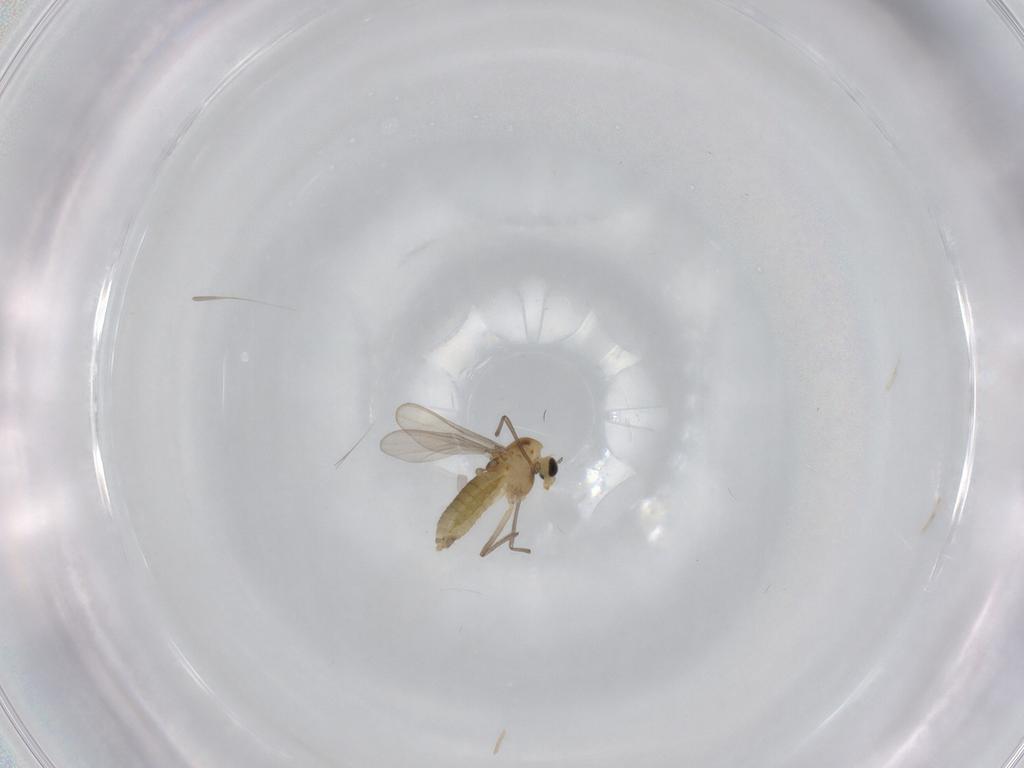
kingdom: Animalia
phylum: Arthropoda
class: Insecta
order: Diptera
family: Chironomidae
